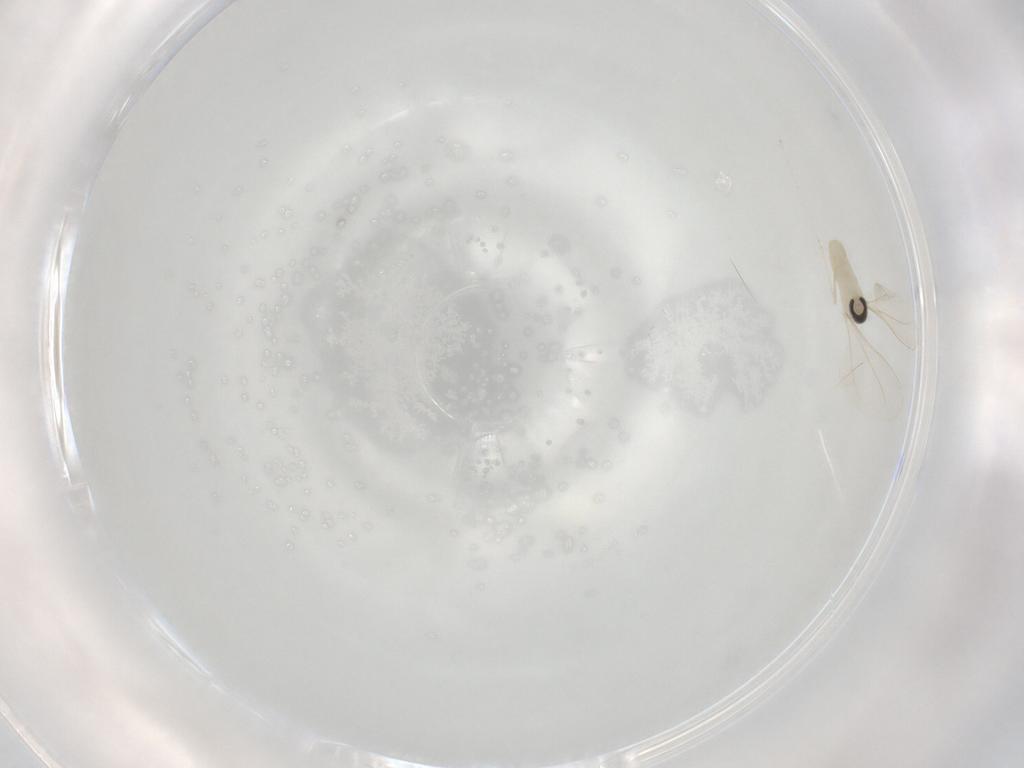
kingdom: Animalia
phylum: Arthropoda
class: Insecta
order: Diptera
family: Cecidomyiidae
